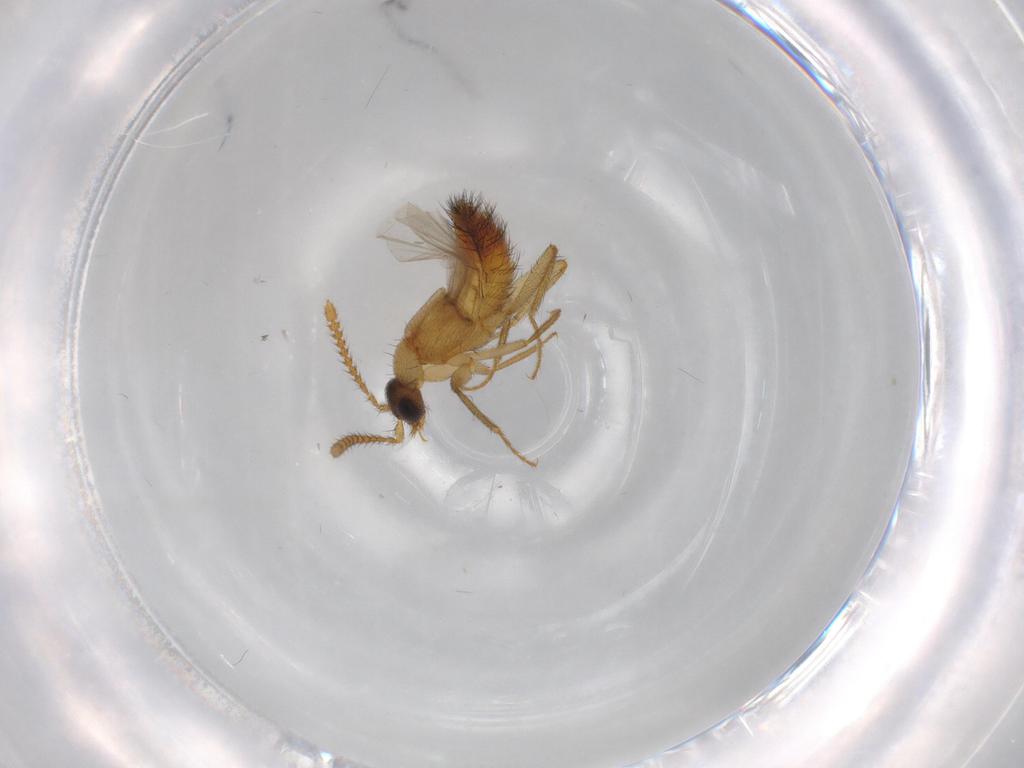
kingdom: Animalia
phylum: Arthropoda
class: Insecta
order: Coleoptera
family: Staphylinidae
